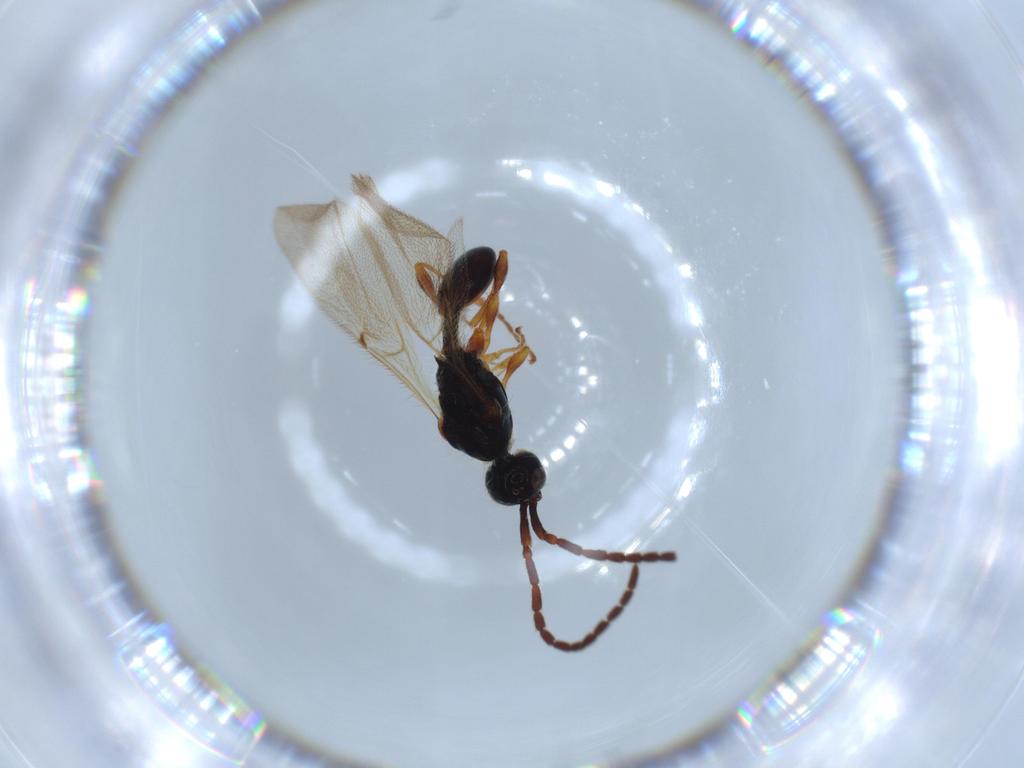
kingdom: Animalia
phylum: Arthropoda
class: Insecta
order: Hymenoptera
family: Diapriidae
